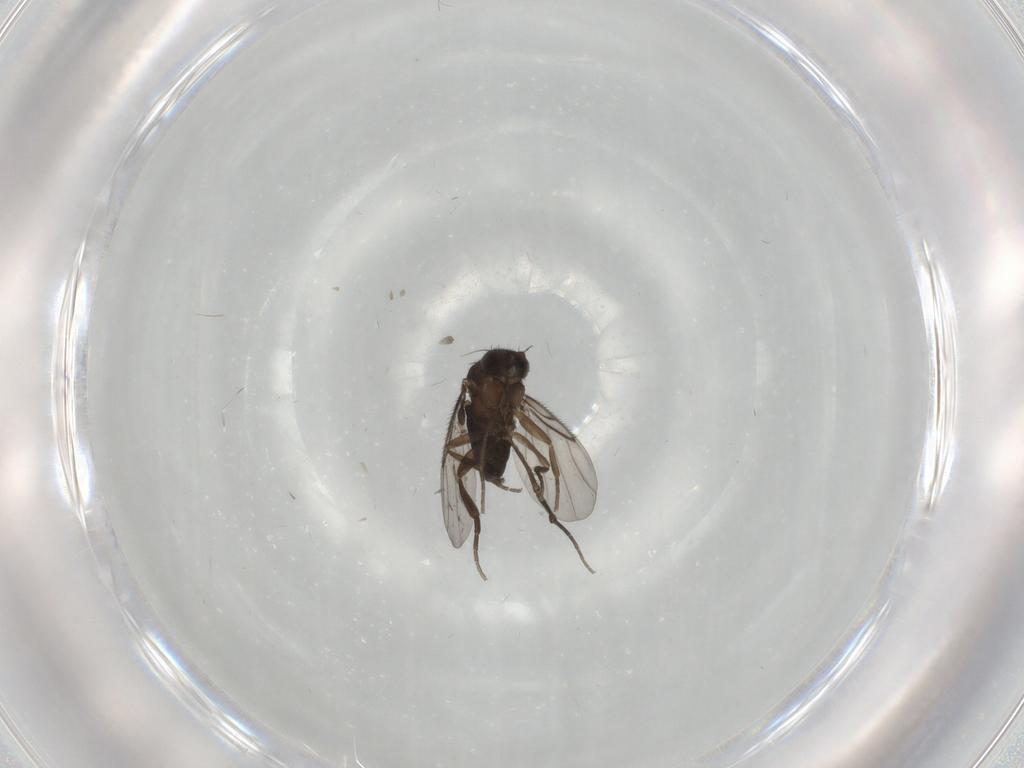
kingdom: Animalia
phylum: Arthropoda
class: Insecta
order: Diptera
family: Phoridae
